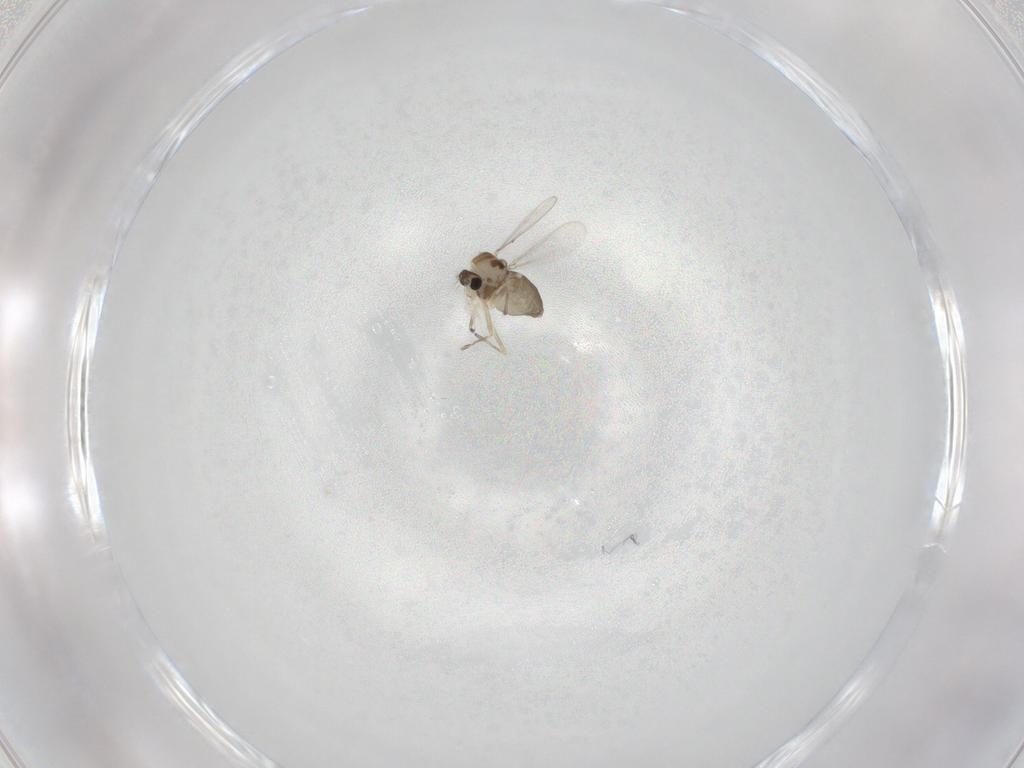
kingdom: Animalia
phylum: Arthropoda
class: Insecta
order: Diptera
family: Chironomidae
